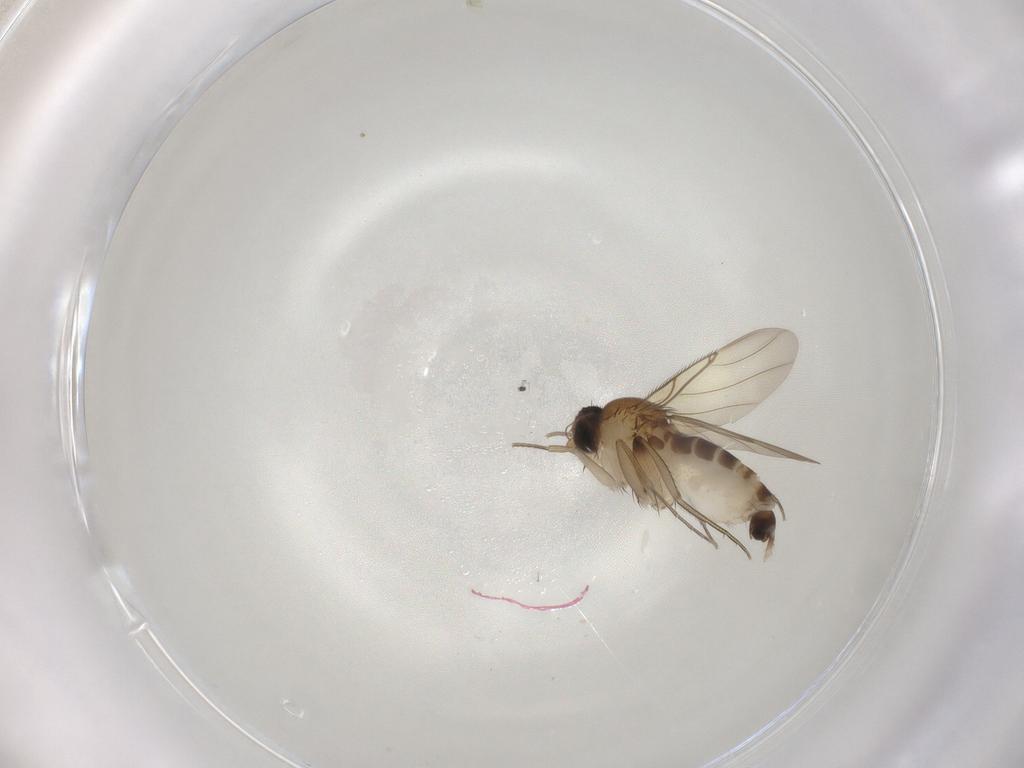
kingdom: Animalia
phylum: Arthropoda
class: Insecta
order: Diptera
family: Phoridae
